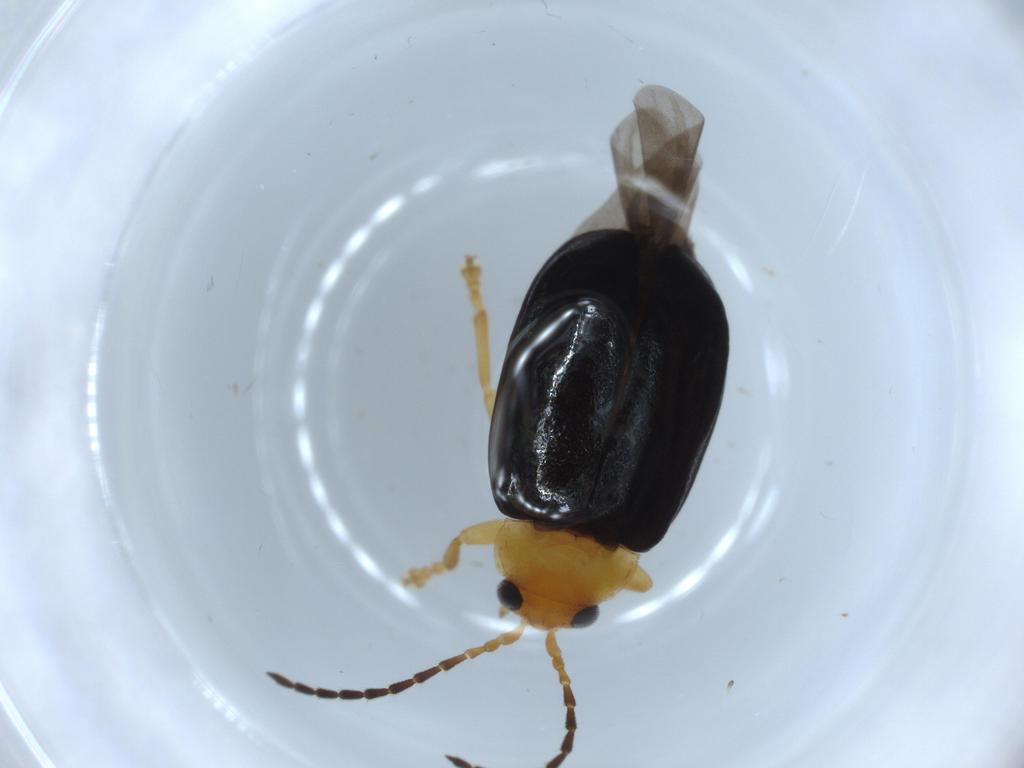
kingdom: Animalia
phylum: Arthropoda
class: Insecta
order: Coleoptera
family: Chrysomelidae
